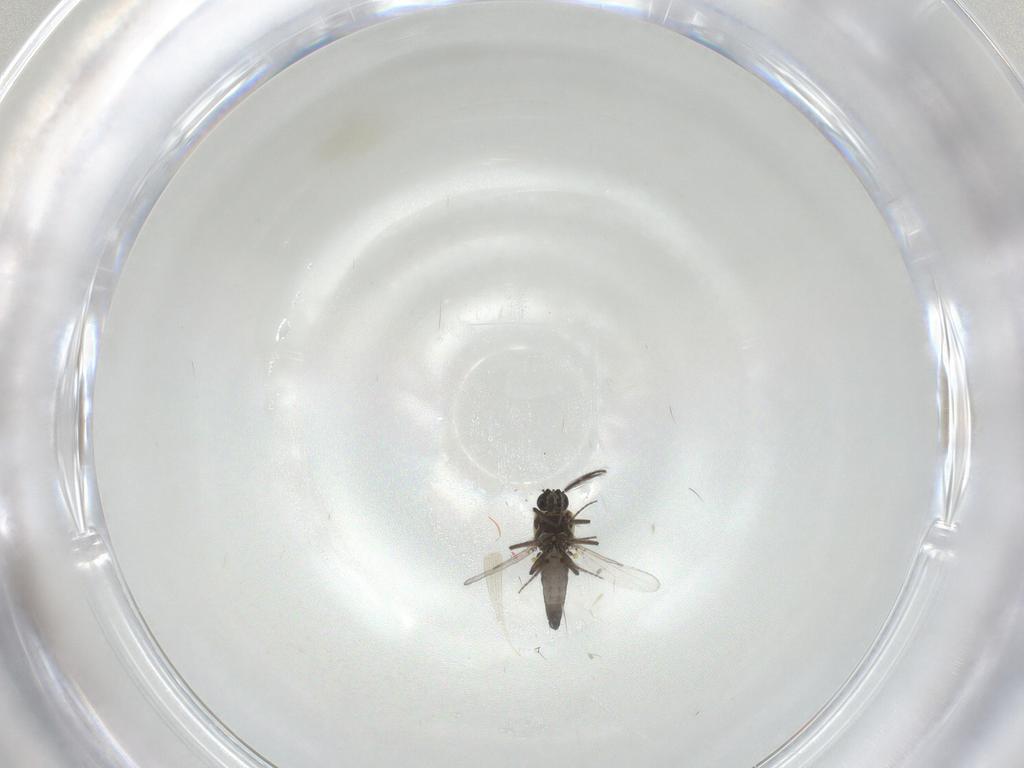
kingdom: Animalia
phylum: Arthropoda
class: Insecta
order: Diptera
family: Ceratopogonidae
